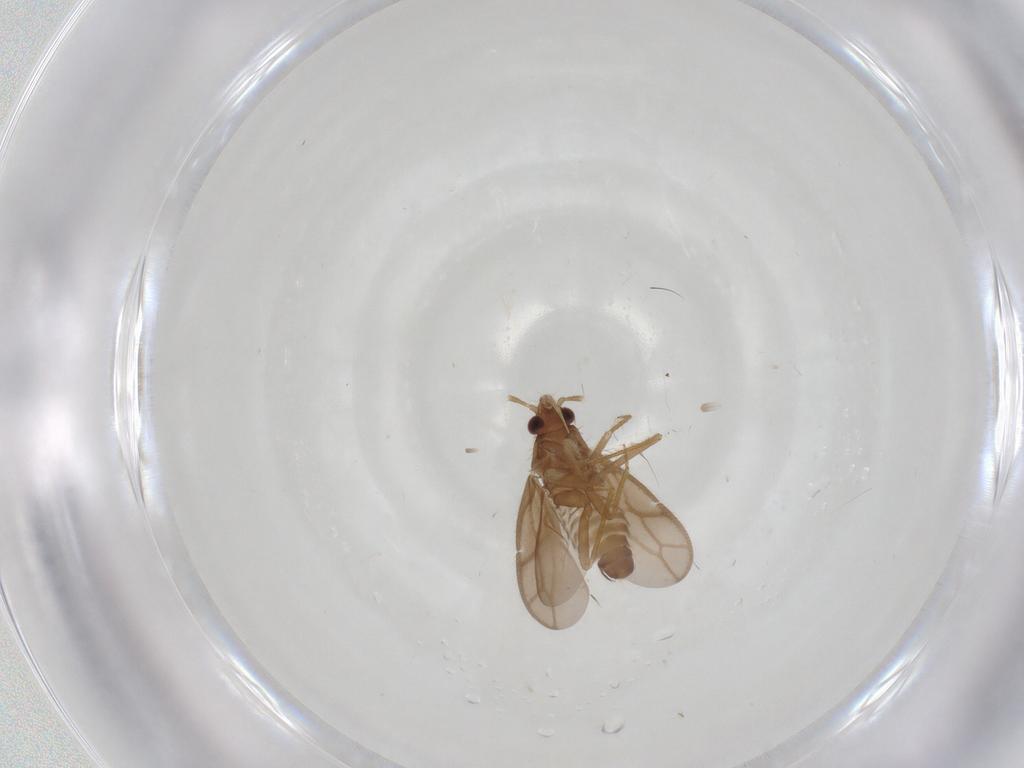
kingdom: Animalia
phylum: Arthropoda
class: Insecta
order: Hemiptera
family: Ceratocombidae
